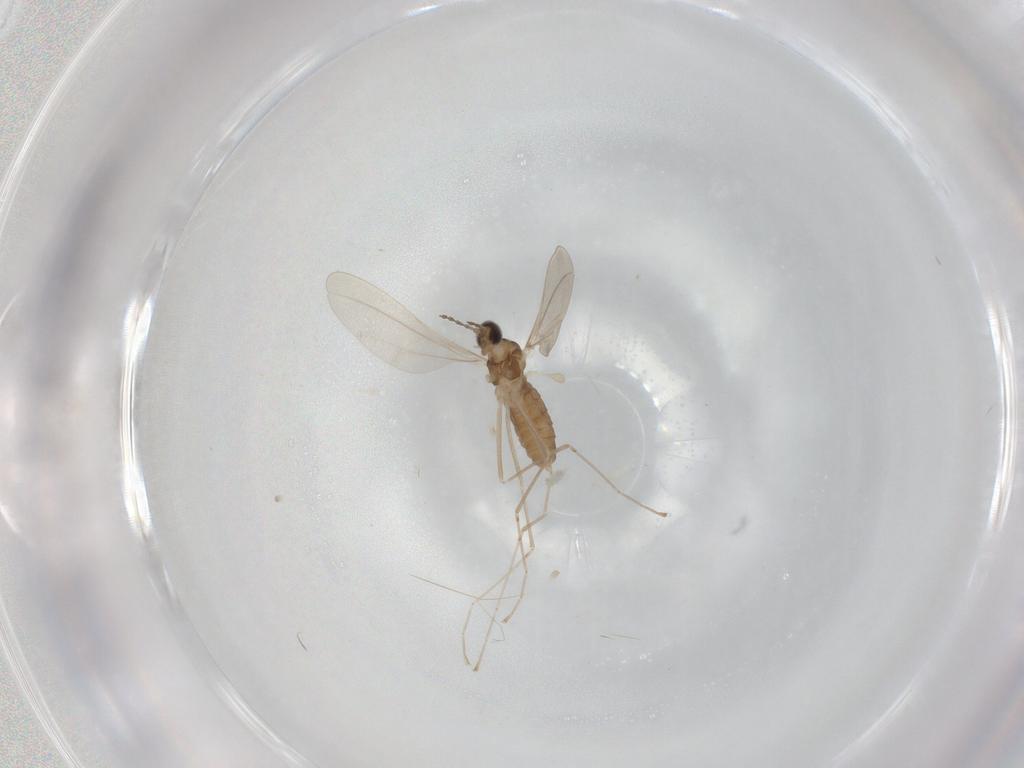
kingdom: Animalia
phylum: Arthropoda
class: Insecta
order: Diptera
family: Cecidomyiidae
